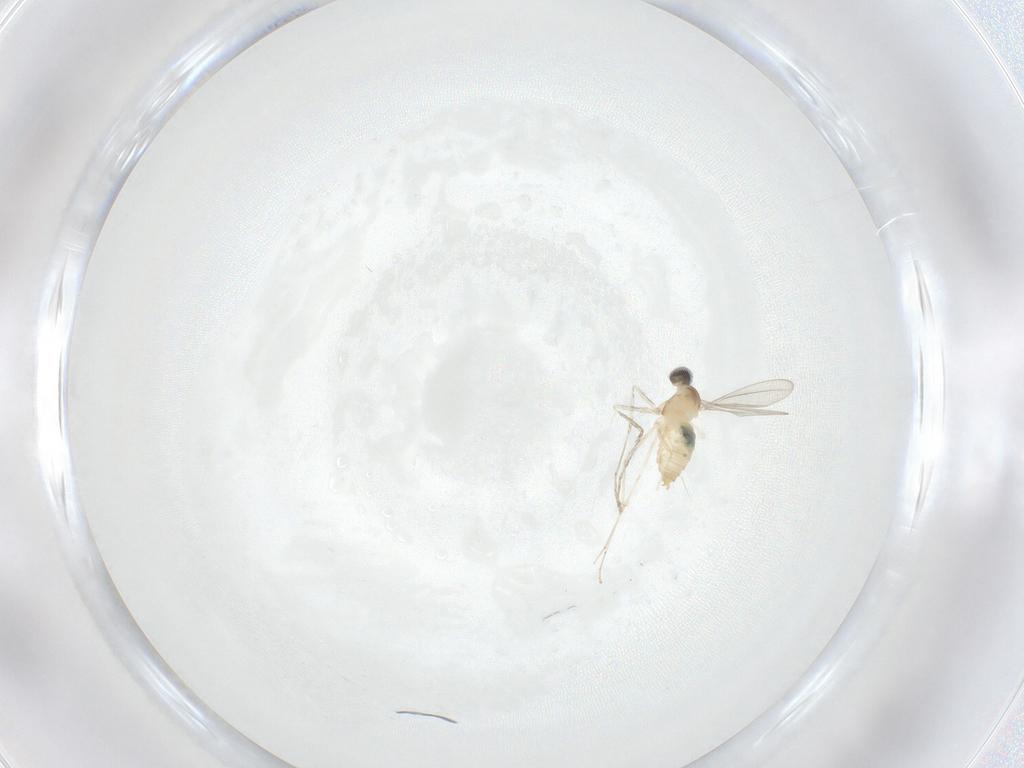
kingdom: Animalia
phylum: Arthropoda
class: Insecta
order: Diptera
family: Cecidomyiidae
